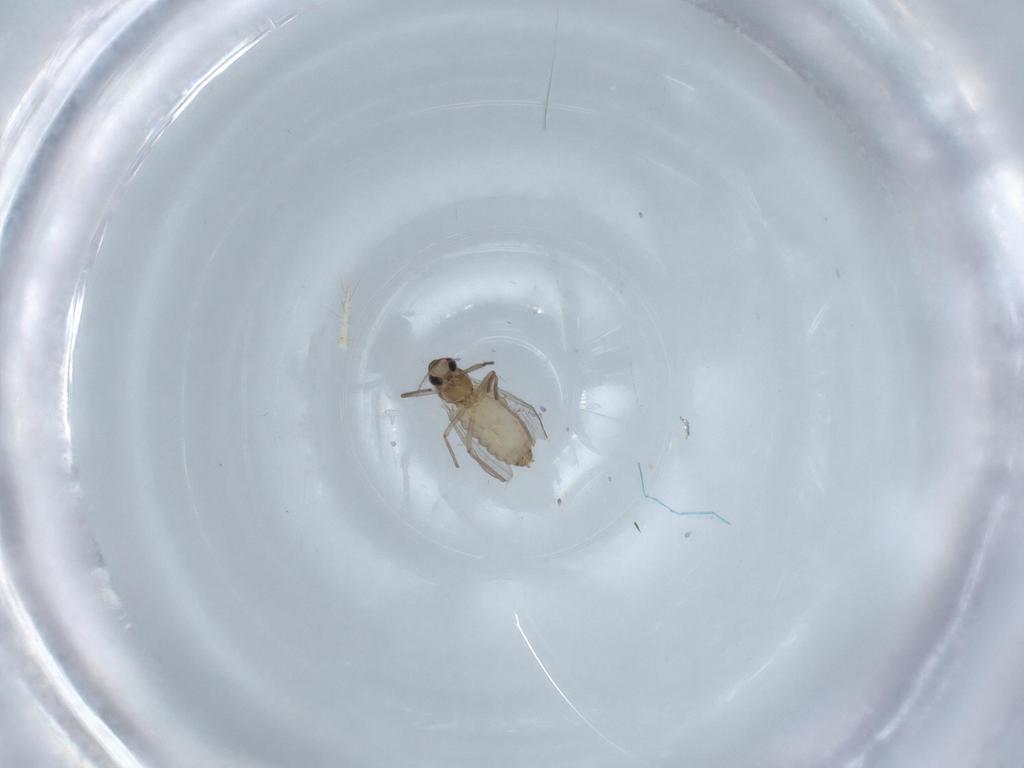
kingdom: Animalia
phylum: Arthropoda
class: Insecta
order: Diptera
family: Chironomidae
